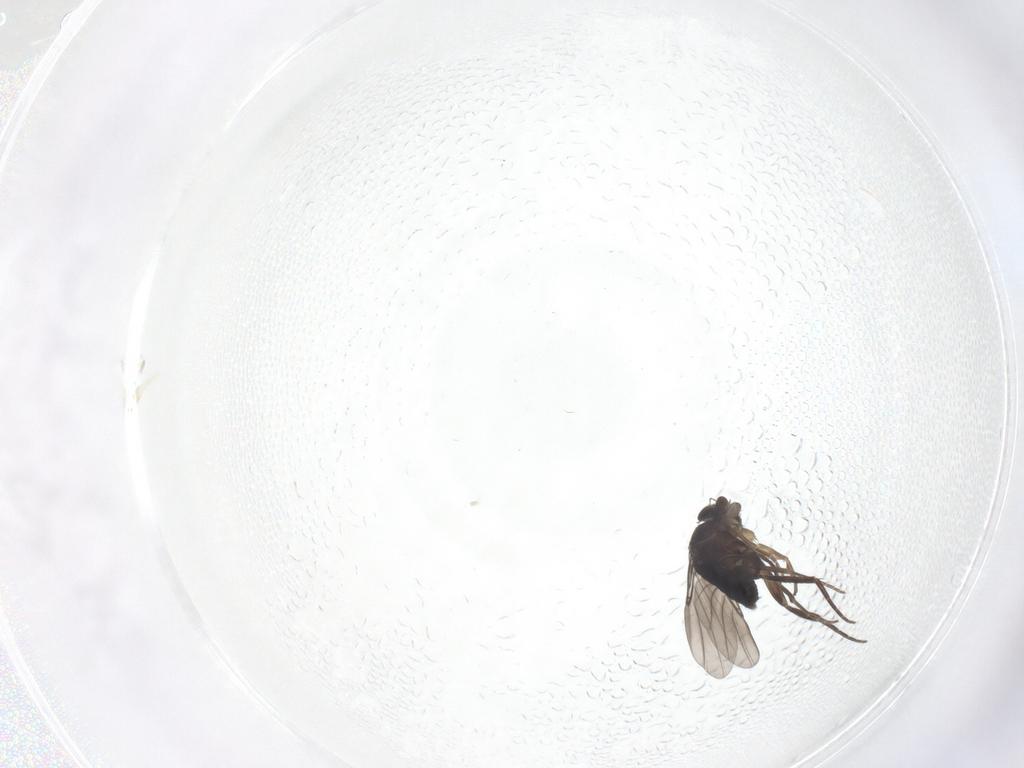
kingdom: Animalia
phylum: Arthropoda
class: Insecta
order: Diptera
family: Phoridae
